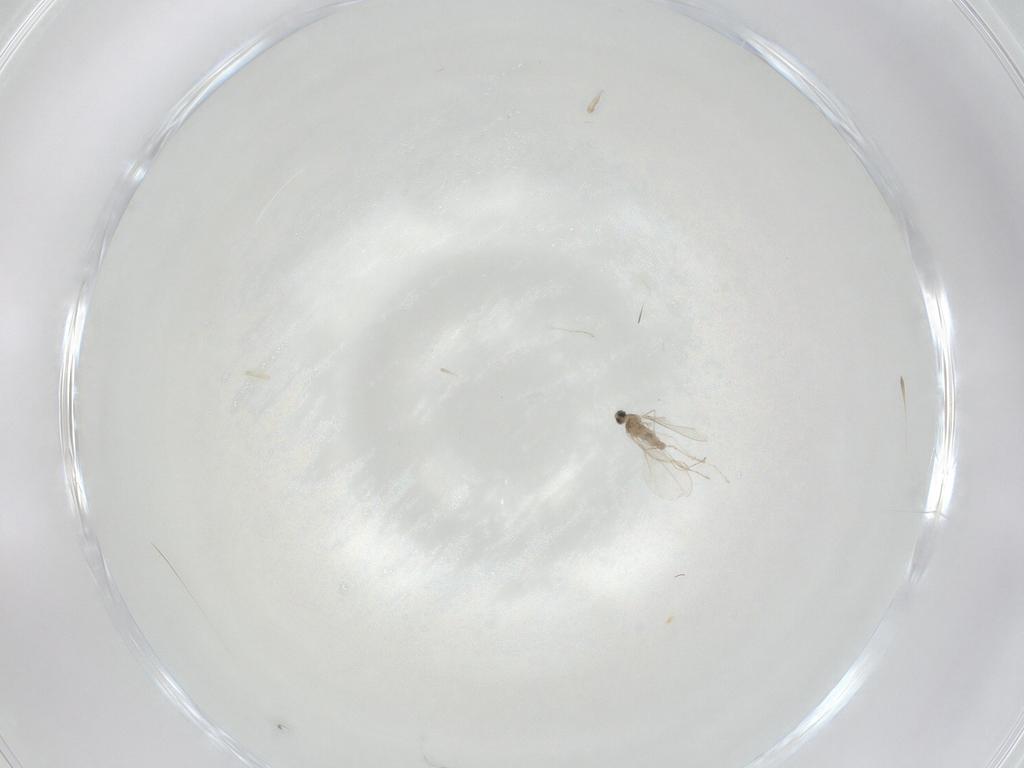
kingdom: Animalia
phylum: Arthropoda
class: Insecta
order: Diptera
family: Cecidomyiidae
